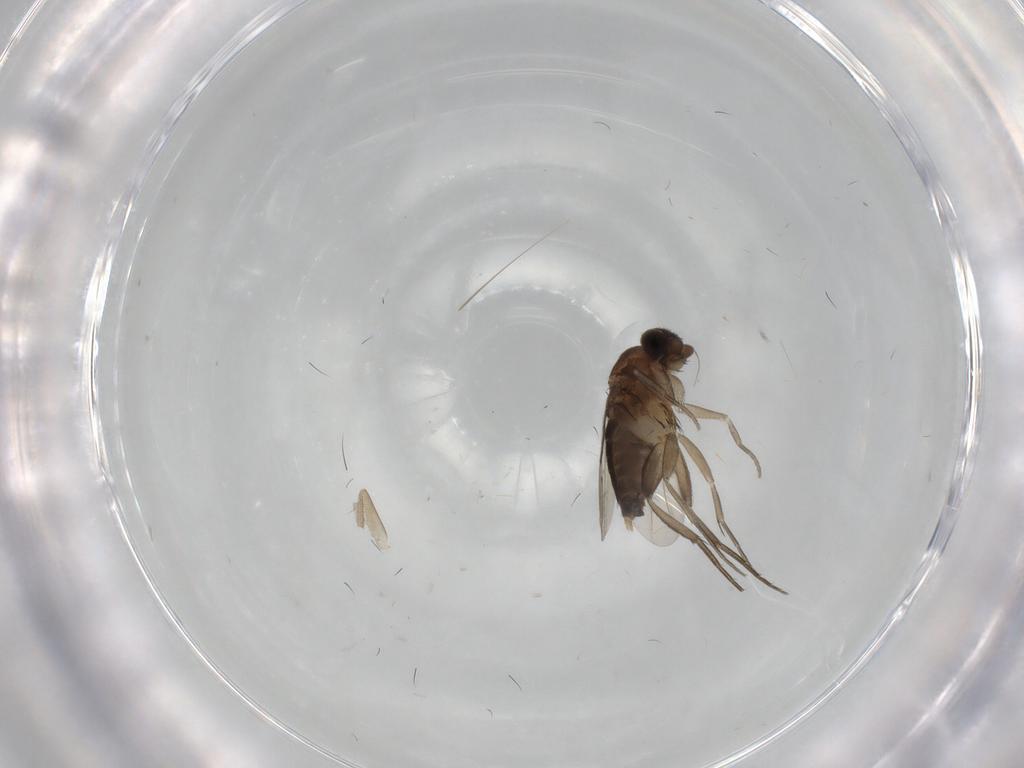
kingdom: Animalia
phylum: Arthropoda
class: Insecta
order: Diptera
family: Phoridae
